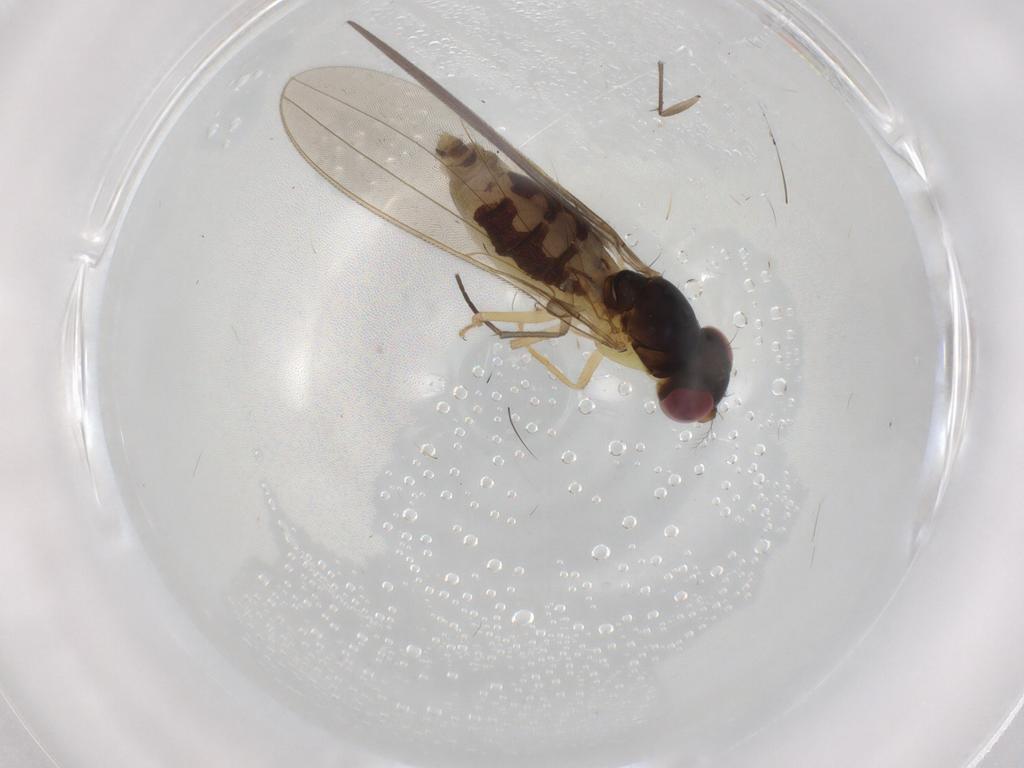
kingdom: Animalia
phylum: Arthropoda
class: Insecta
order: Diptera
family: Asteiidae
